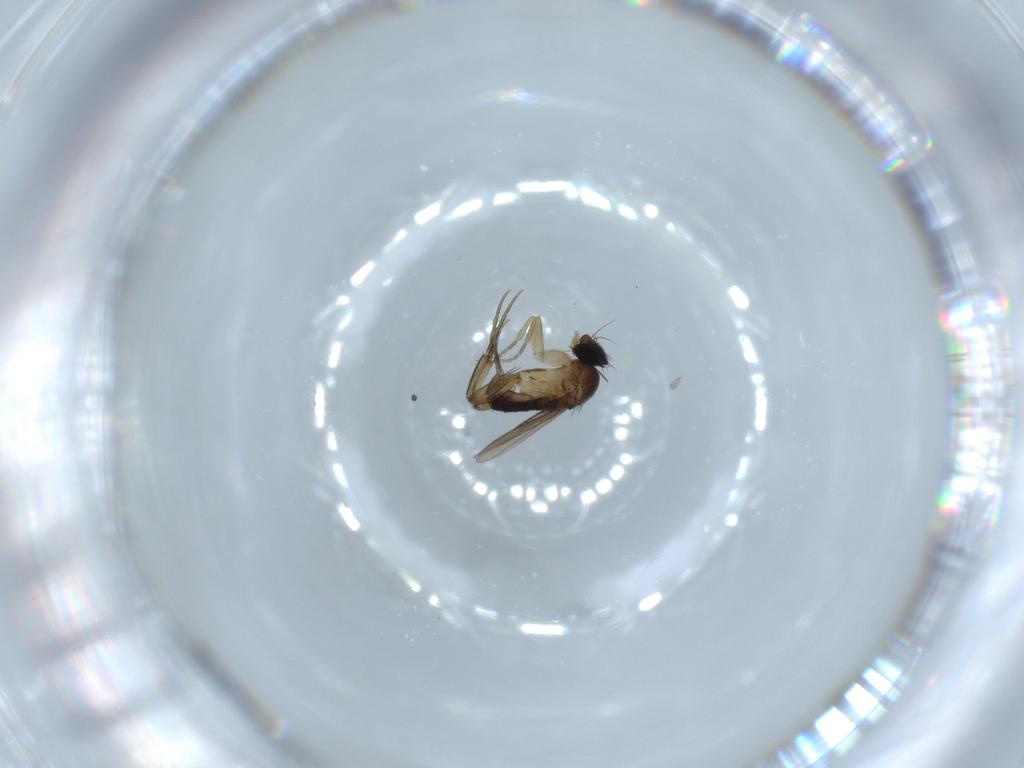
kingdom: Animalia
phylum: Arthropoda
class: Insecta
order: Diptera
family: Phoridae
